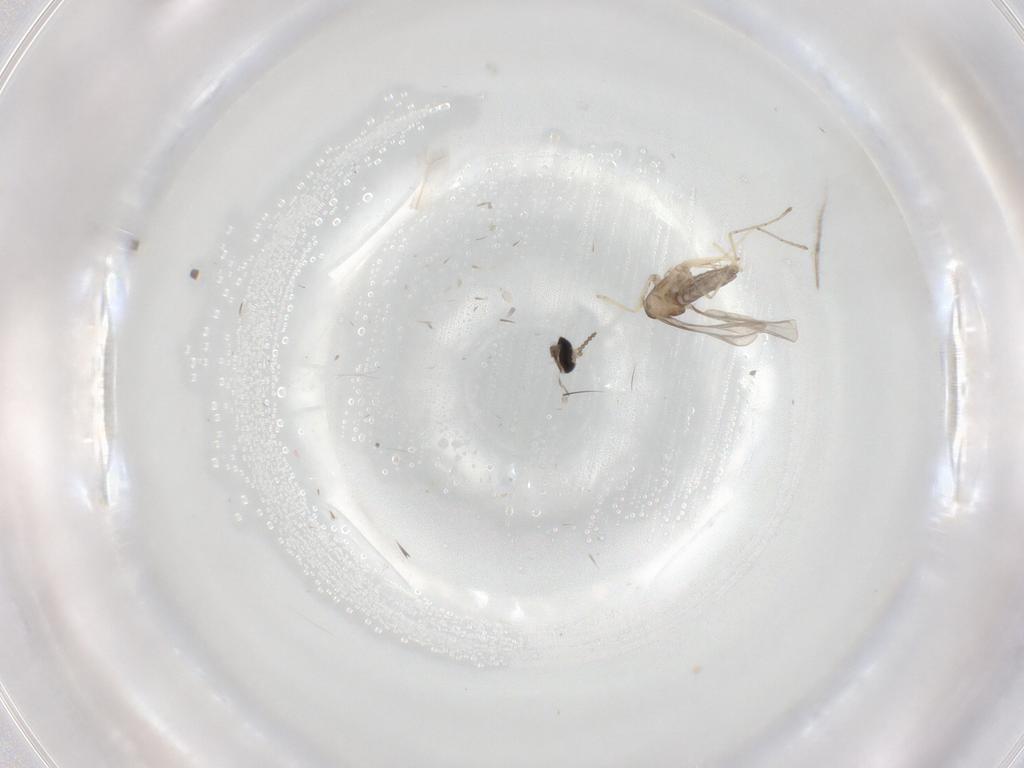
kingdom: Animalia
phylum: Arthropoda
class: Insecta
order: Diptera
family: Cecidomyiidae
